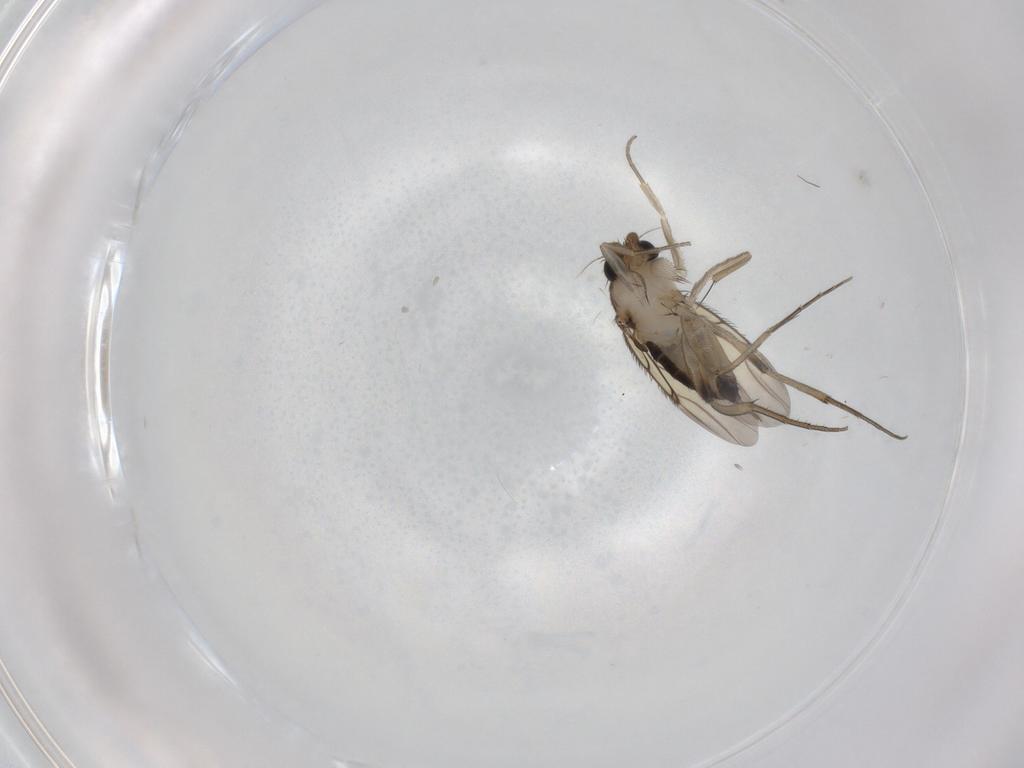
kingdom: Animalia
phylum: Arthropoda
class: Insecta
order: Diptera
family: Phoridae
